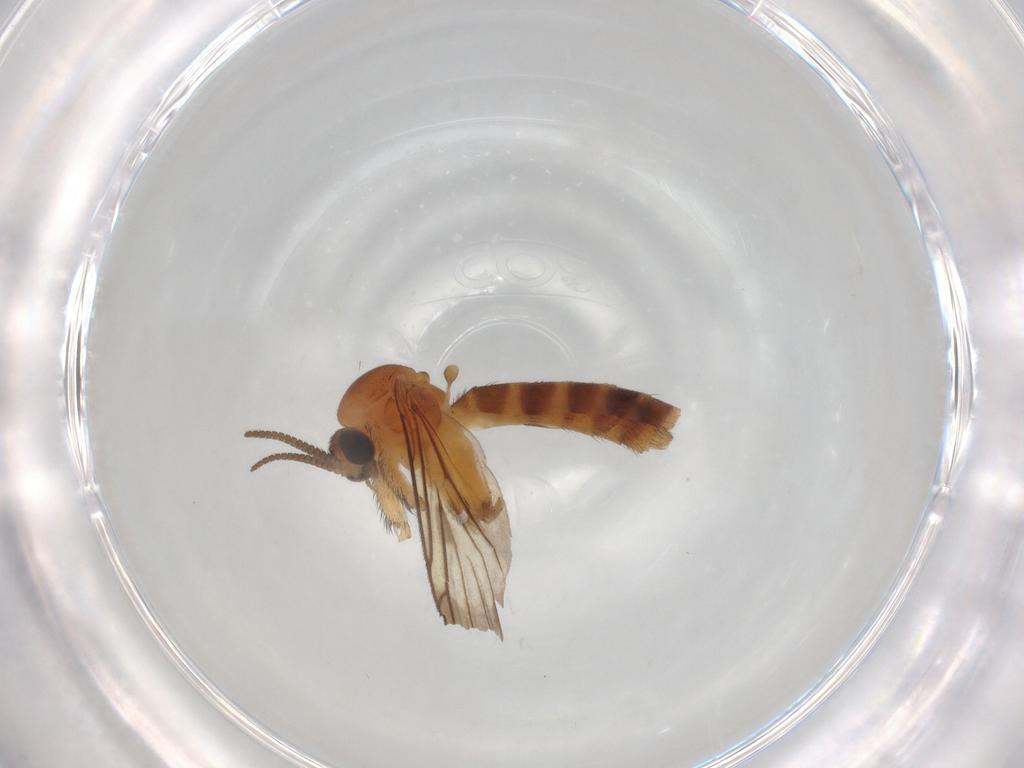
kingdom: Animalia
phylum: Arthropoda
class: Insecta
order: Diptera
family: Keroplatidae
